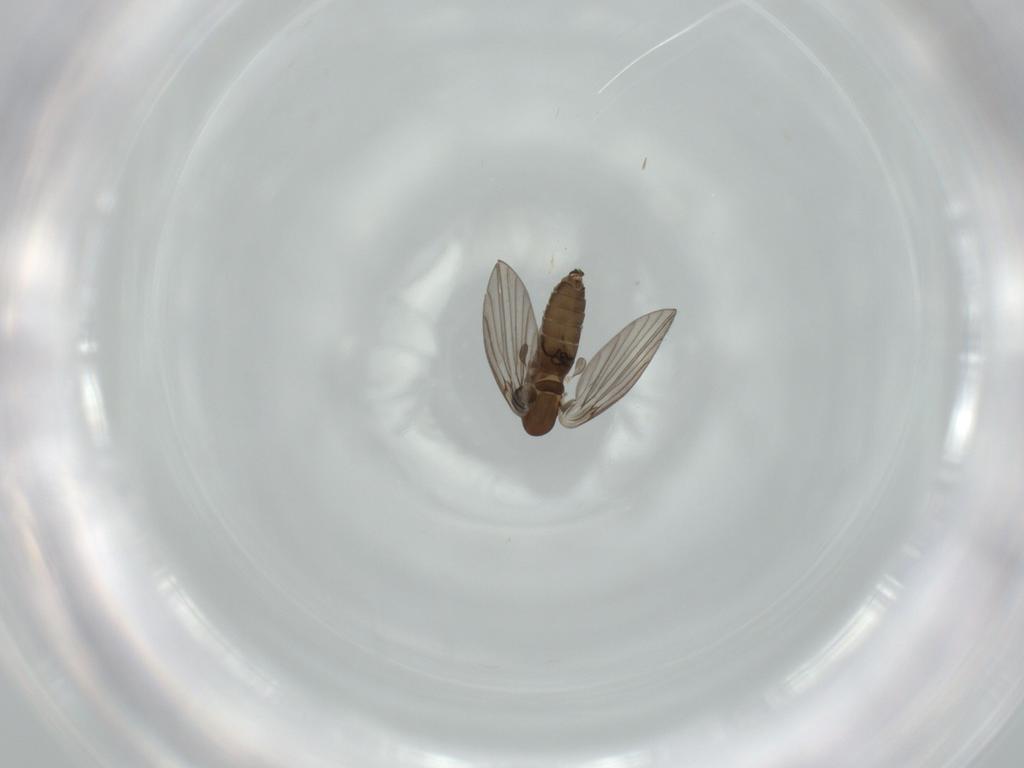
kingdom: Animalia
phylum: Arthropoda
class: Insecta
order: Diptera
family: Psychodidae
